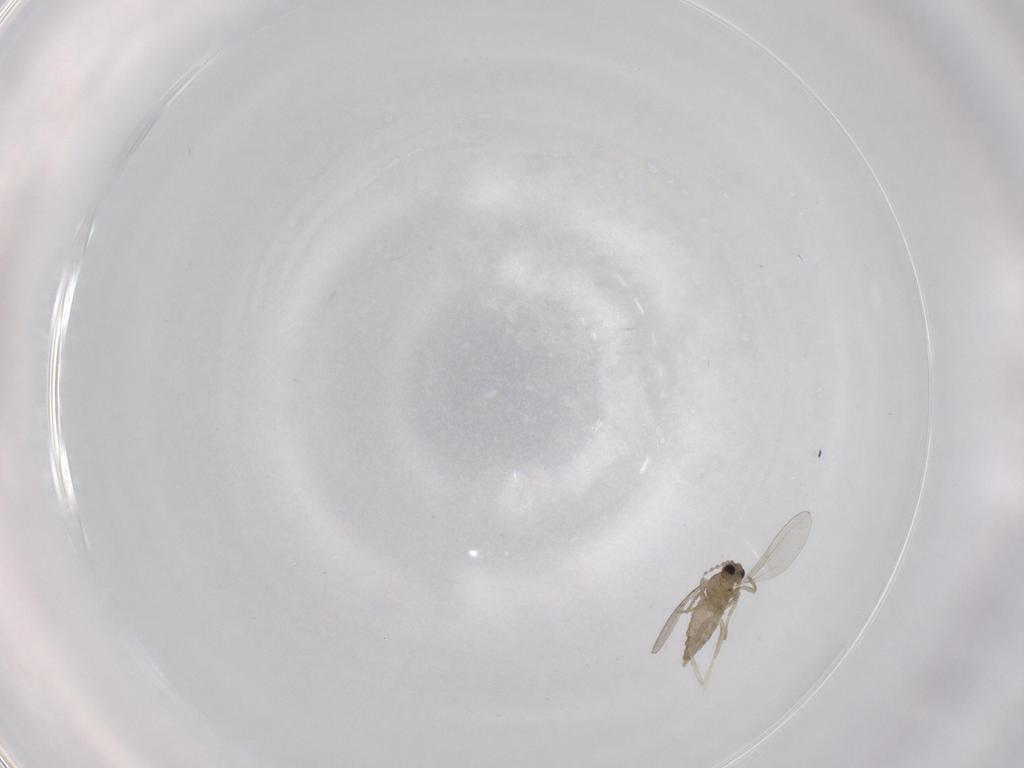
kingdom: Animalia
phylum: Arthropoda
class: Insecta
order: Diptera
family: Cecidomyiidae
